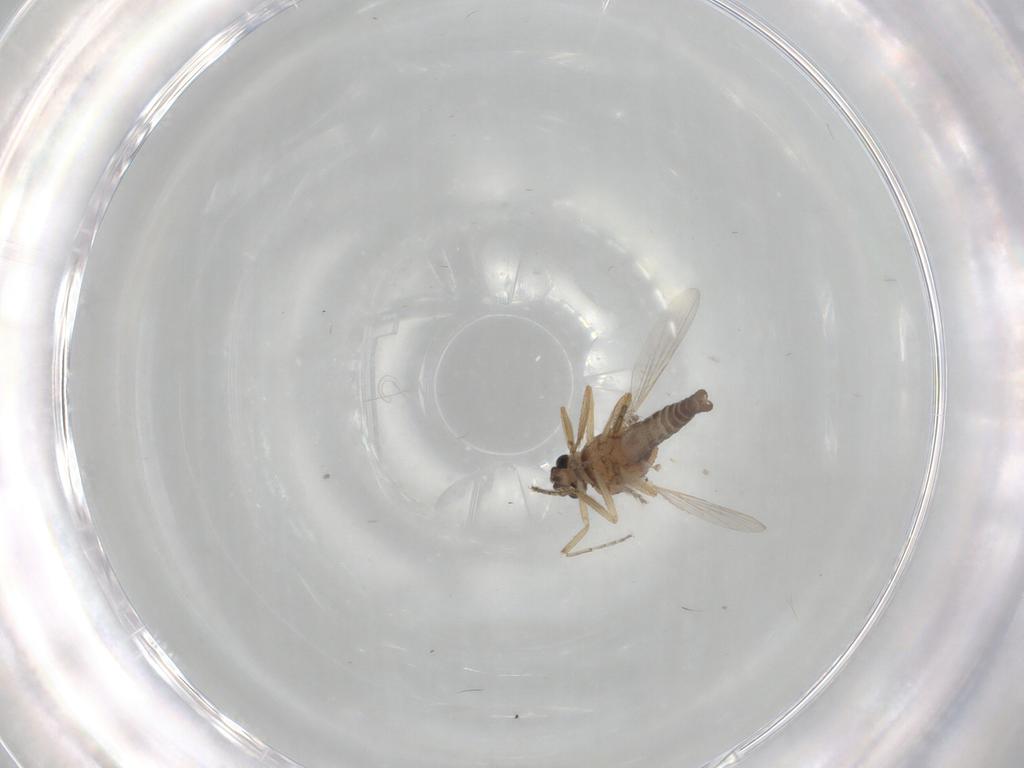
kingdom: Animalia
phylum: Arthropoda
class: Insecta
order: Diptera
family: Ceratopogonidae
